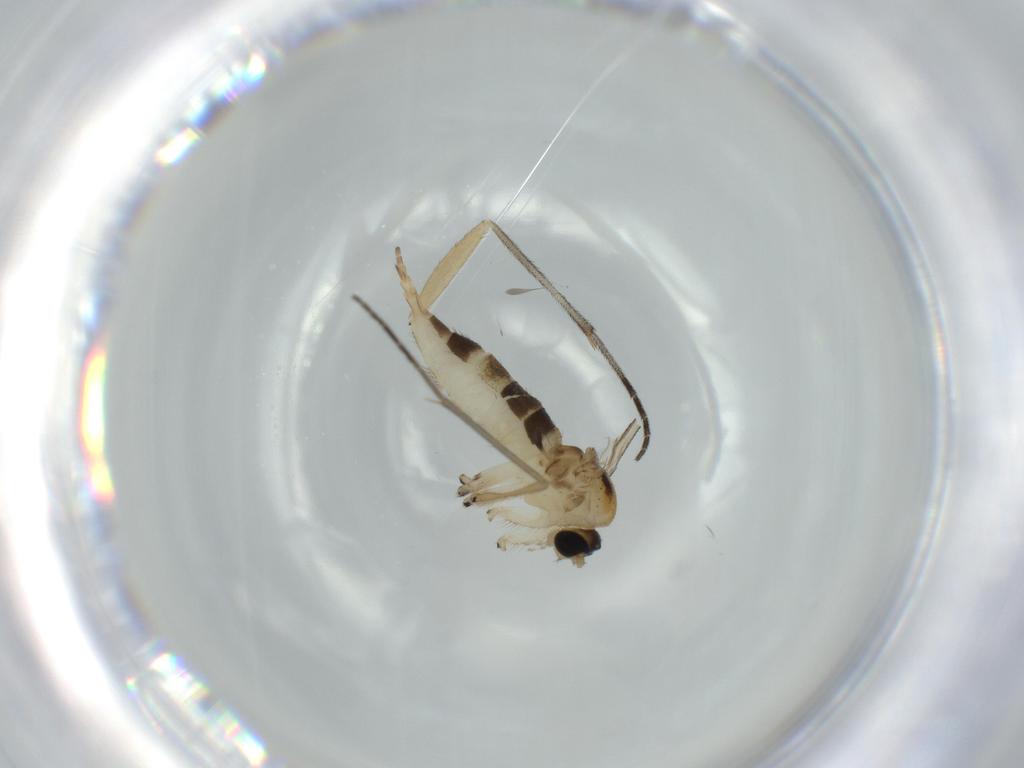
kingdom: Animalia
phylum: Arthropoda
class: Insecta
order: Diptera
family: Sciaridae
